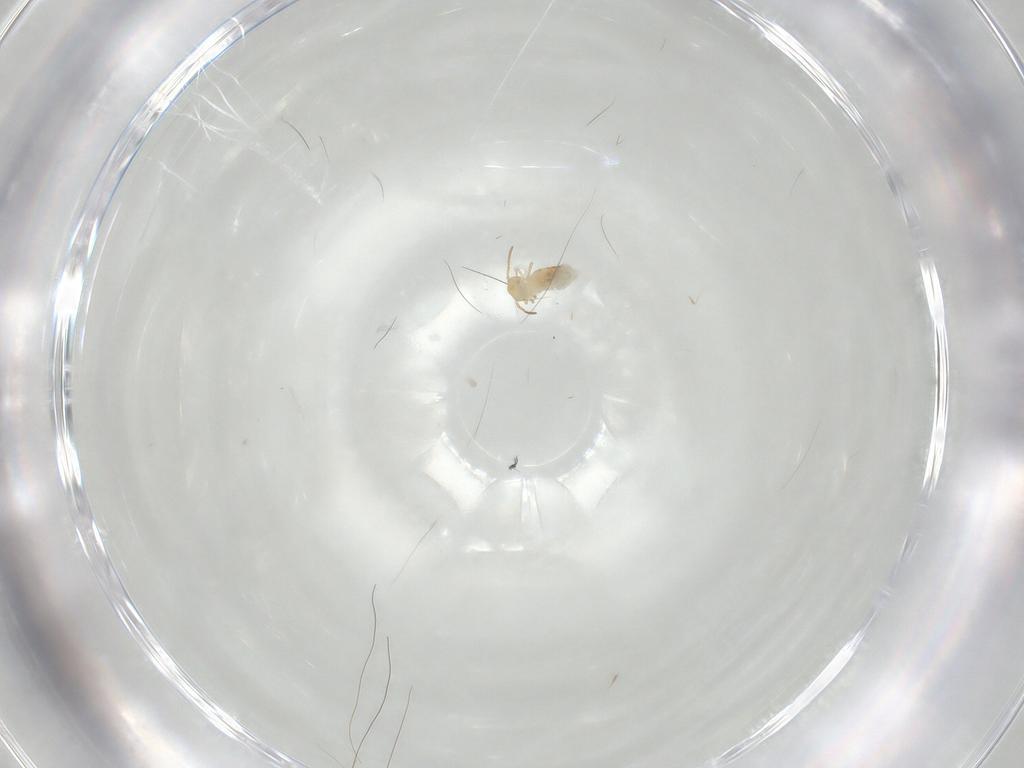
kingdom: Animalia
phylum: Arthropoda
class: Collembola
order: Symphypleona
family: Bourletiellidae
